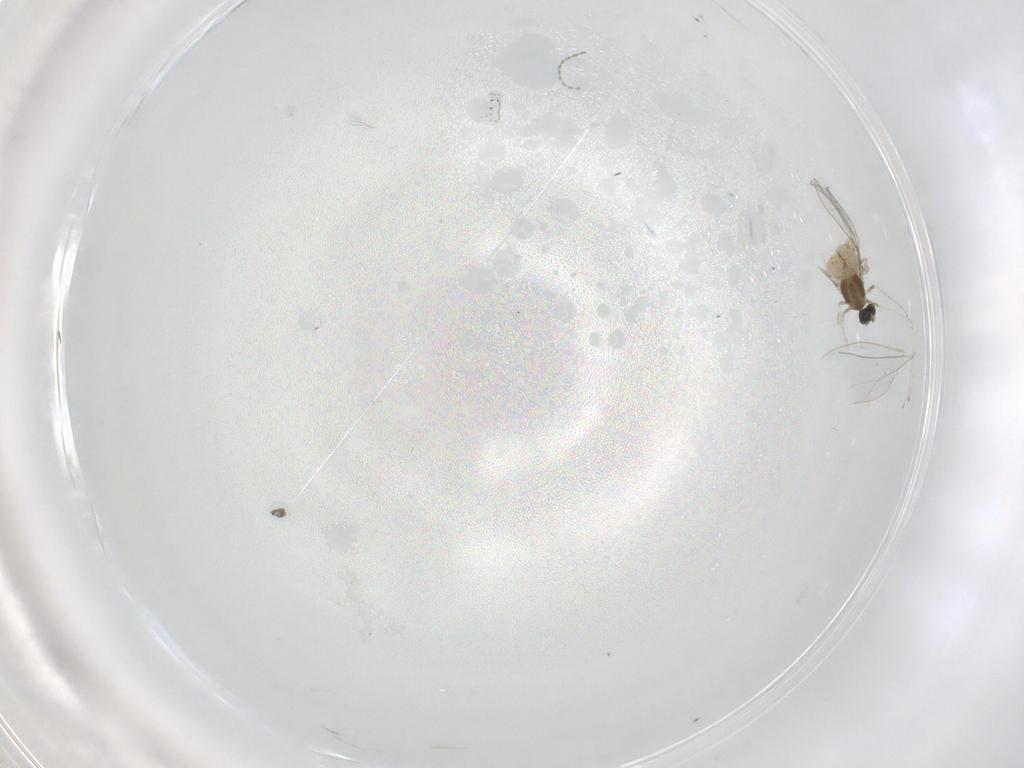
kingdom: Animalia
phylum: Arthropoda
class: Insecta
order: Diptera
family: Cecidomyiidae
